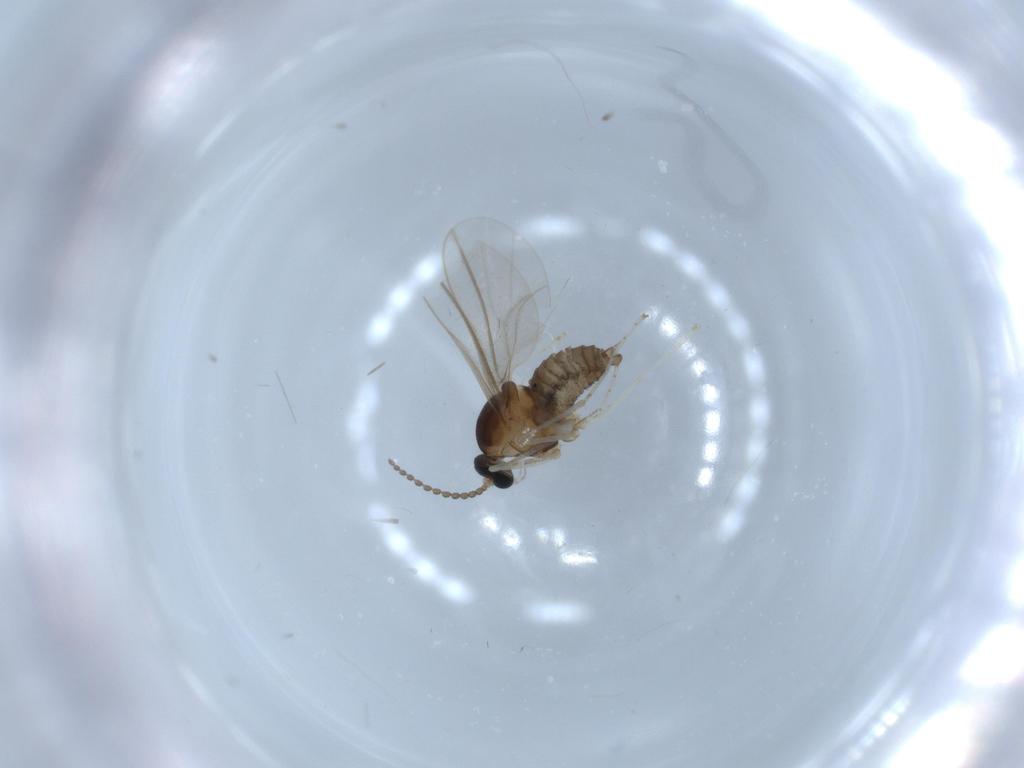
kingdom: Animalia
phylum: Arthropoda
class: Insecta
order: Diptera
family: Cecidomyiidae
